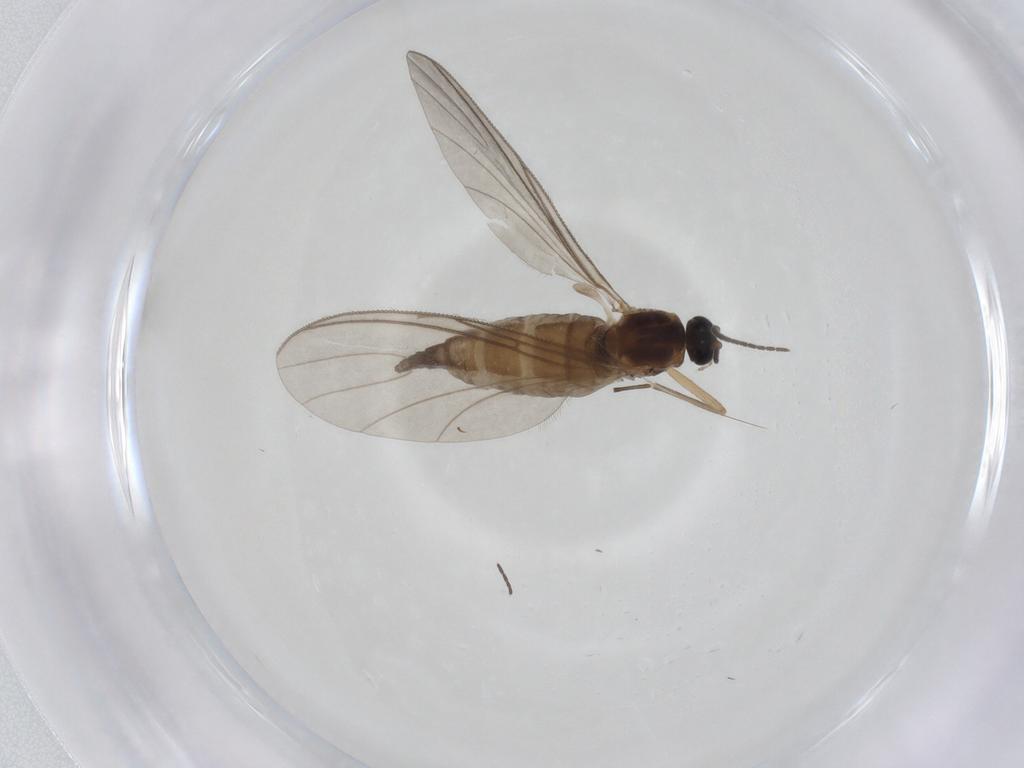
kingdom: Animalia
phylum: Arthropoda
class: Insecta
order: Diptera
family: Sciaridae
